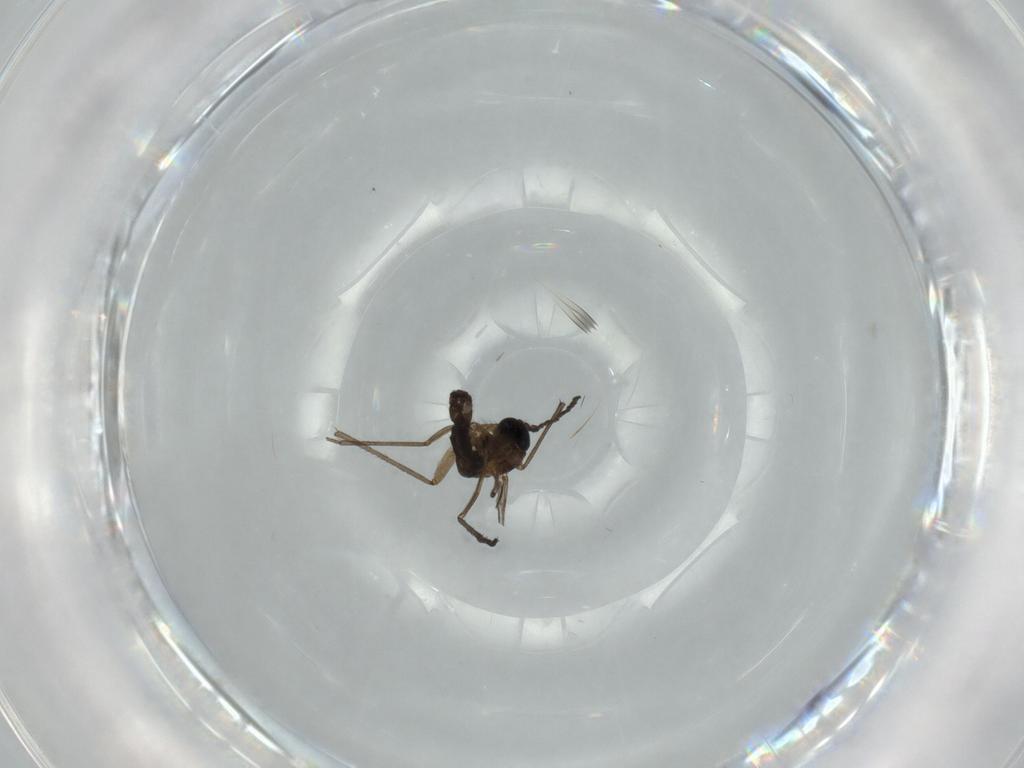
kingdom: Animalia
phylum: Arthropoda
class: Insecta
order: Diptera
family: Sciaridae
